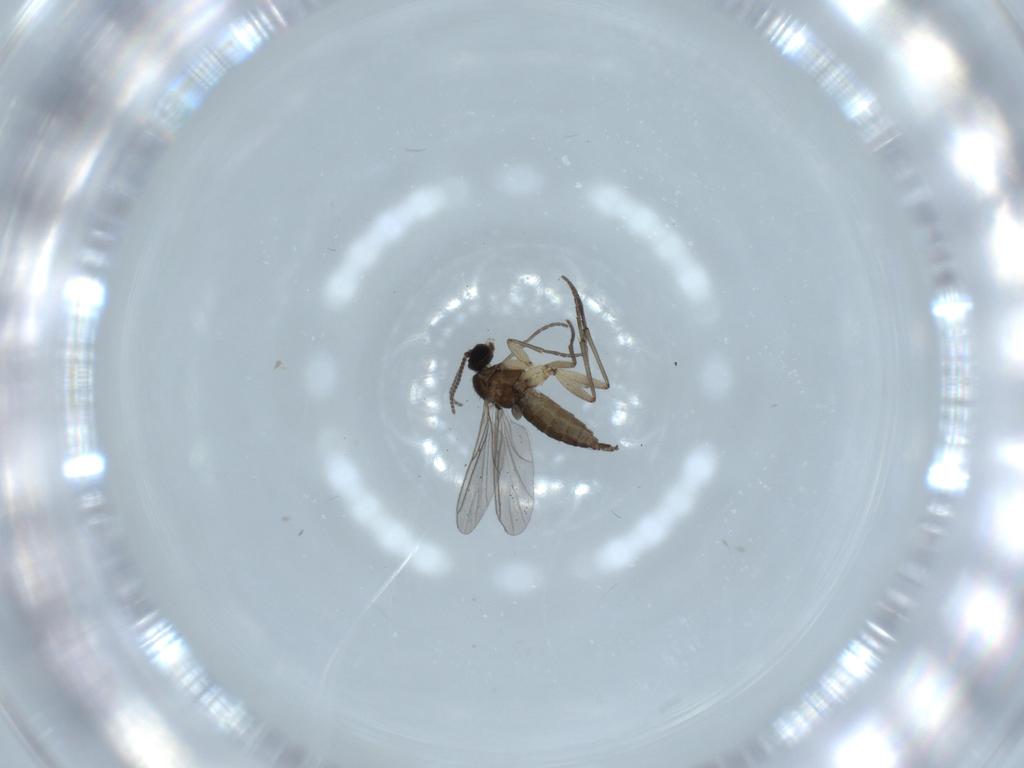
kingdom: Animalia
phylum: Arthropoda
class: Insecta
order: Diptera
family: Sciaridae
